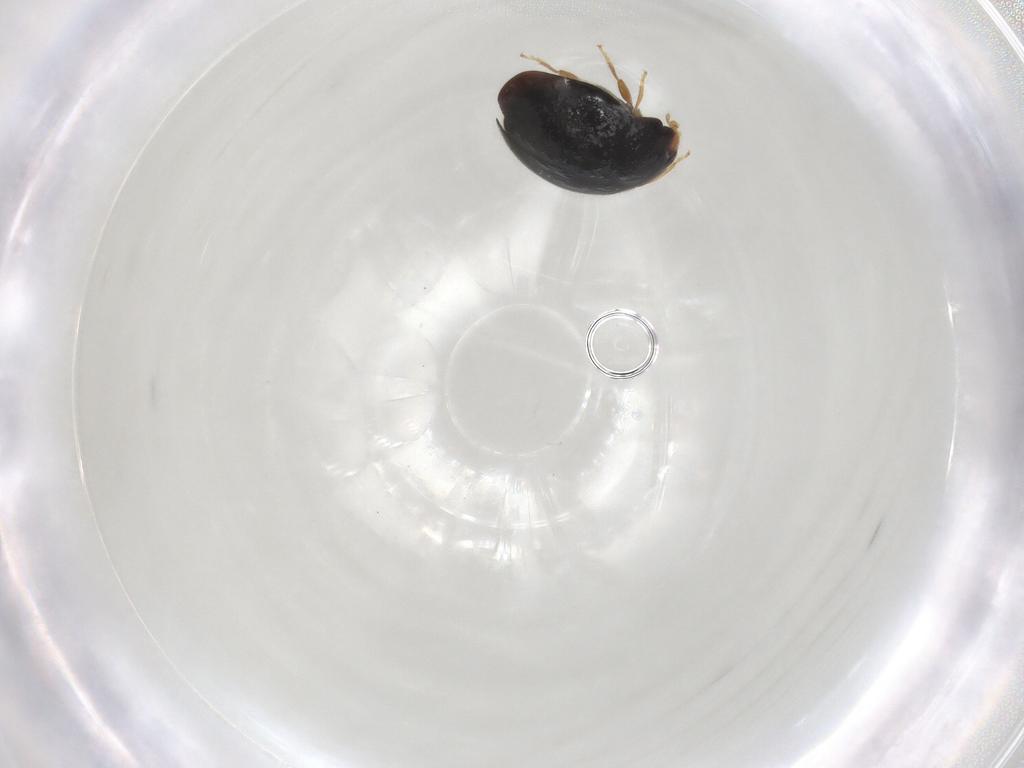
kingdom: Animalia
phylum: Arthropoda
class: Insecta
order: Coleoptera
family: Coccinellidae
